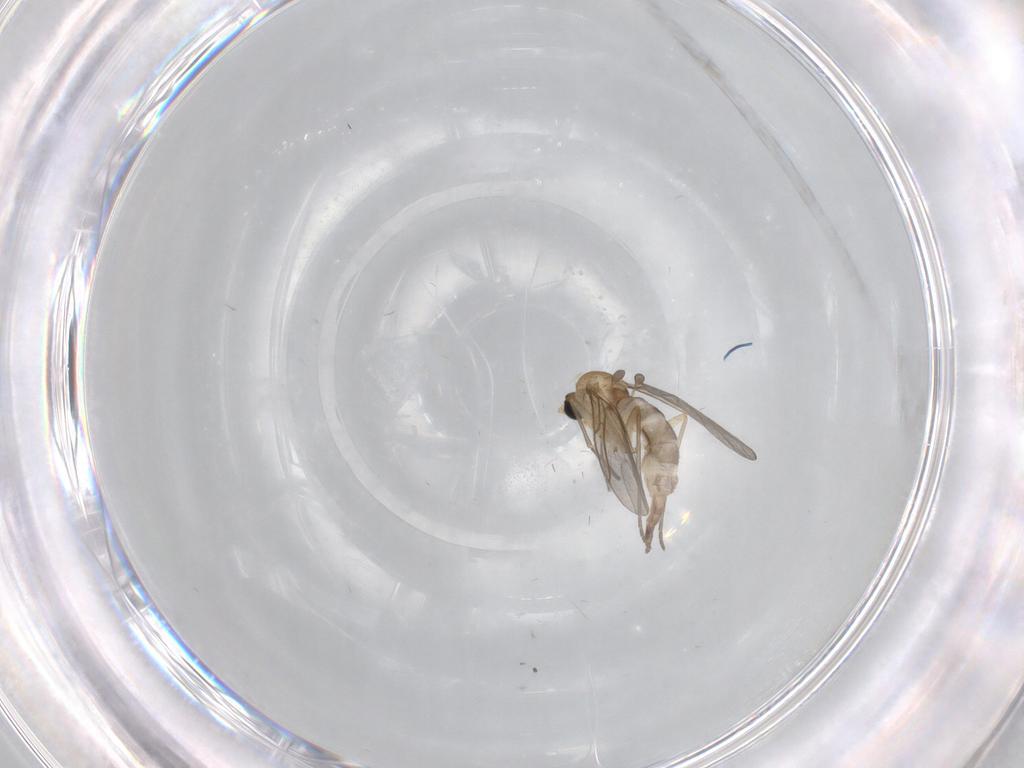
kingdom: Animalia
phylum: Arthropoda
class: Insecta
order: Diptera
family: Sciaridae
